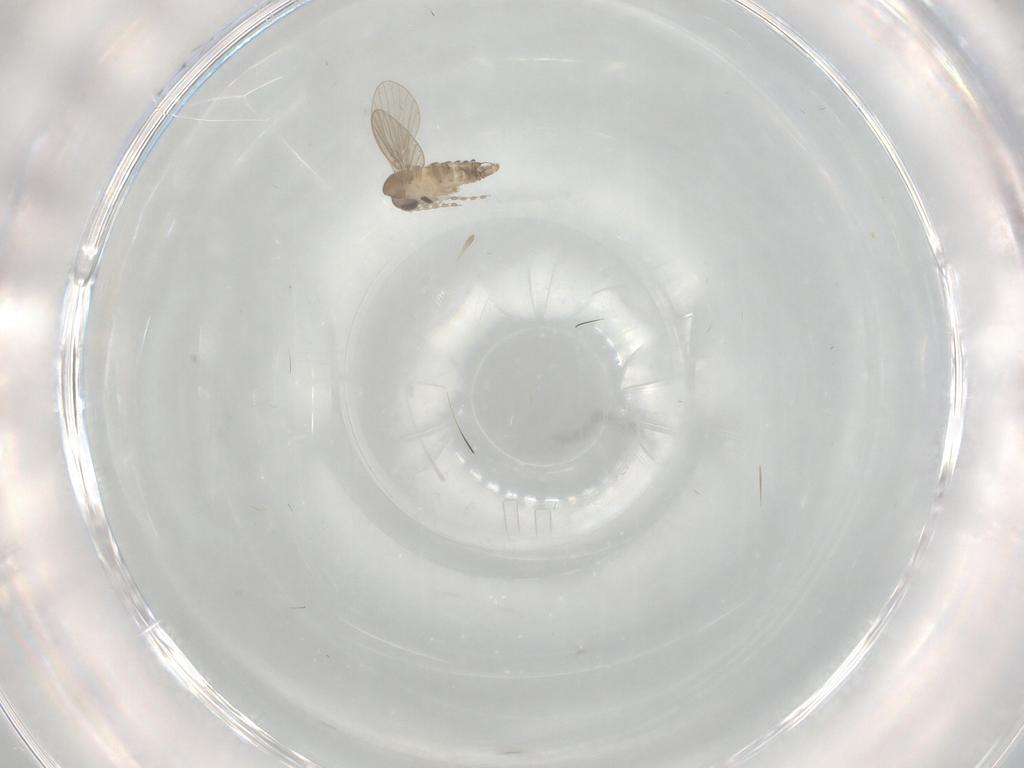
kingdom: Animalia
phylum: Arthropoda
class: Insecta
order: Diptera
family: Ceratopogonidae
